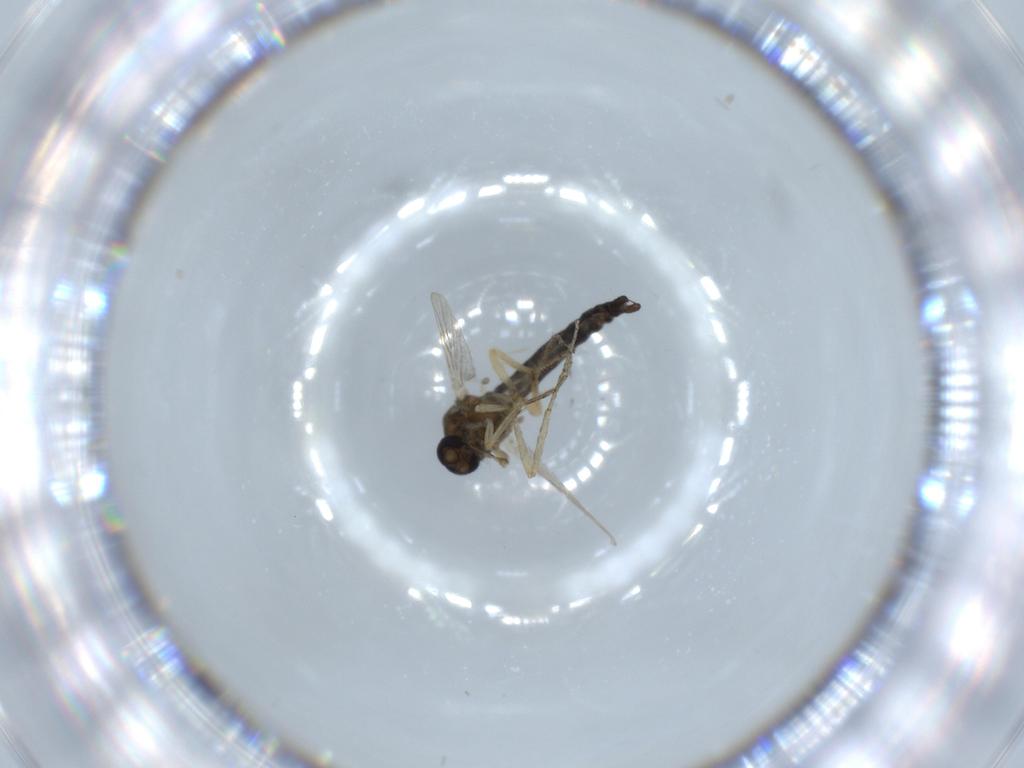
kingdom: Animalia
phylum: Arthropoda
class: Insecta
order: Diptera
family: Ceratopogonidae
